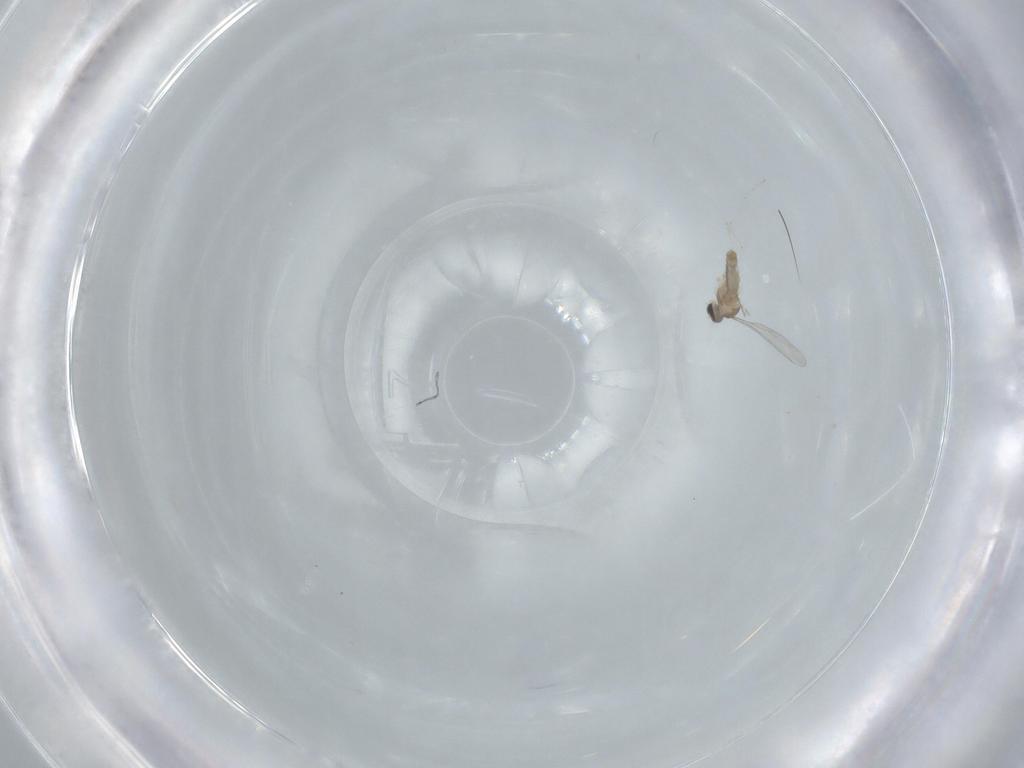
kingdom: Animalia
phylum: Arthropoda
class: Insecta
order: Diptera
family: Cecidomyiidae
